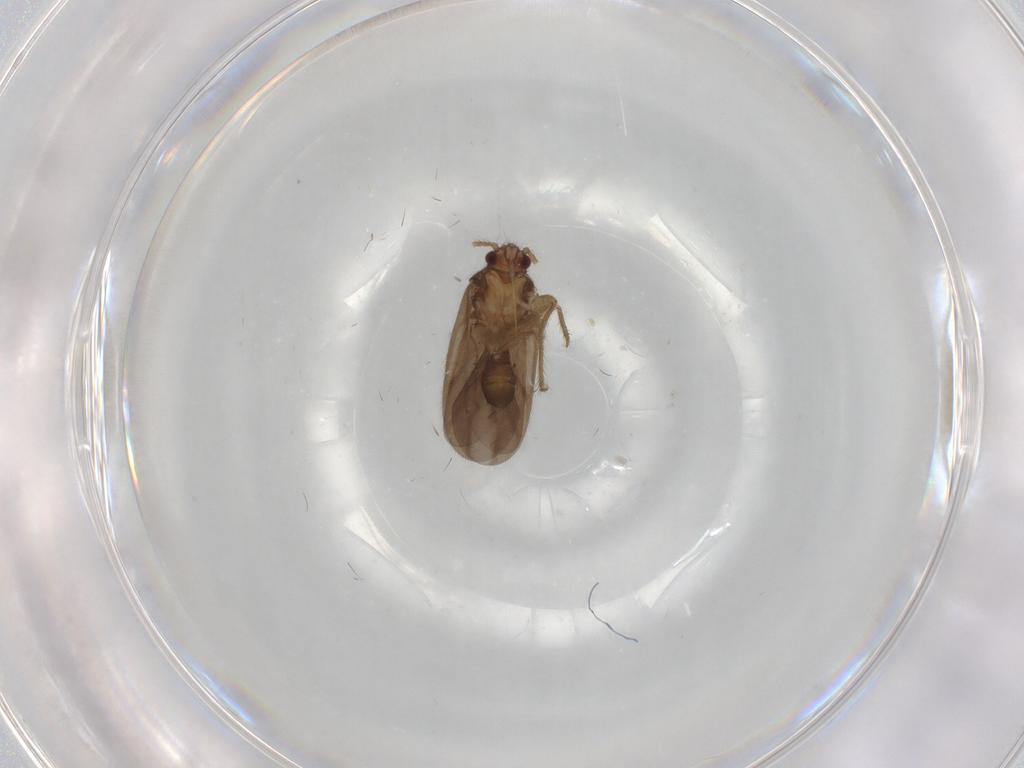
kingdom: Animalia
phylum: Arthropoda
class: Insecta
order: Hemiptera
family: Ceratocombidae
